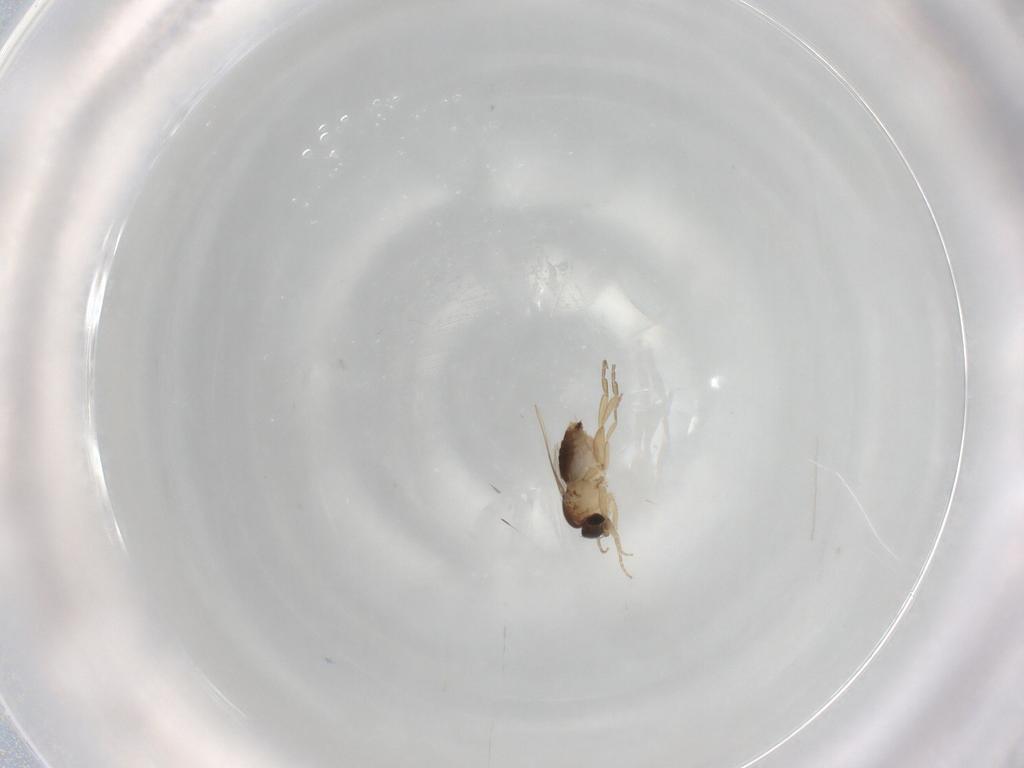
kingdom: Animalia
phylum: Arthropoda
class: Insecta
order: Diptera
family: Phoridae
